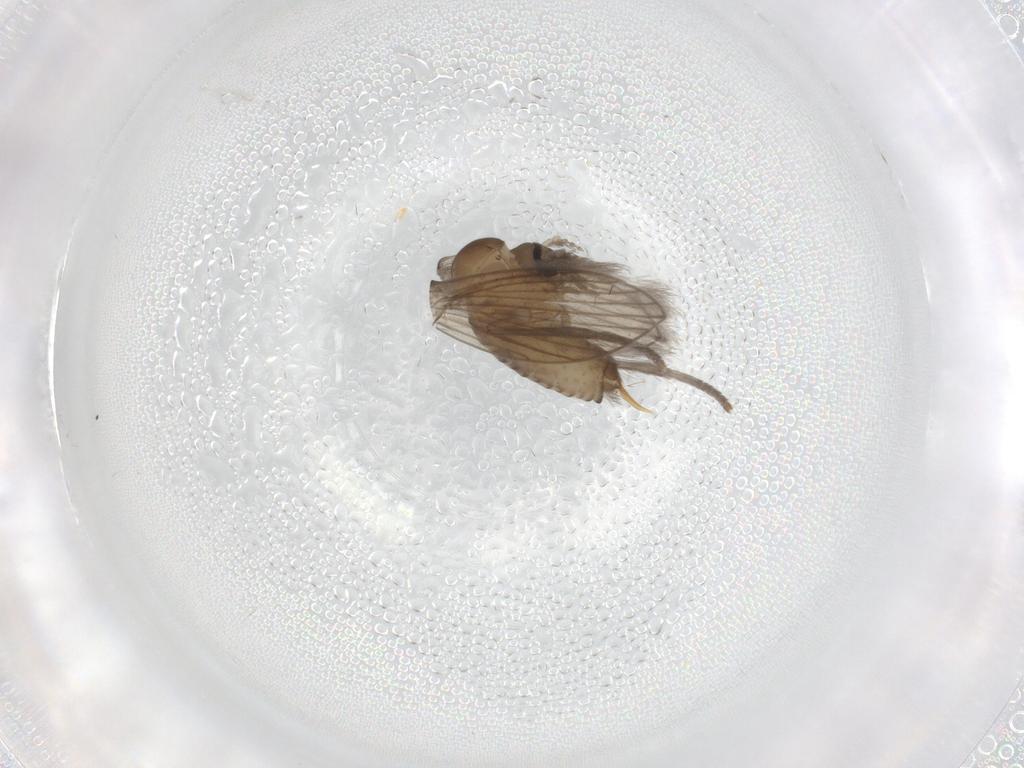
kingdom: Animalia
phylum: Arthropoda
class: Insecta
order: Diptera
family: Psychodidae
